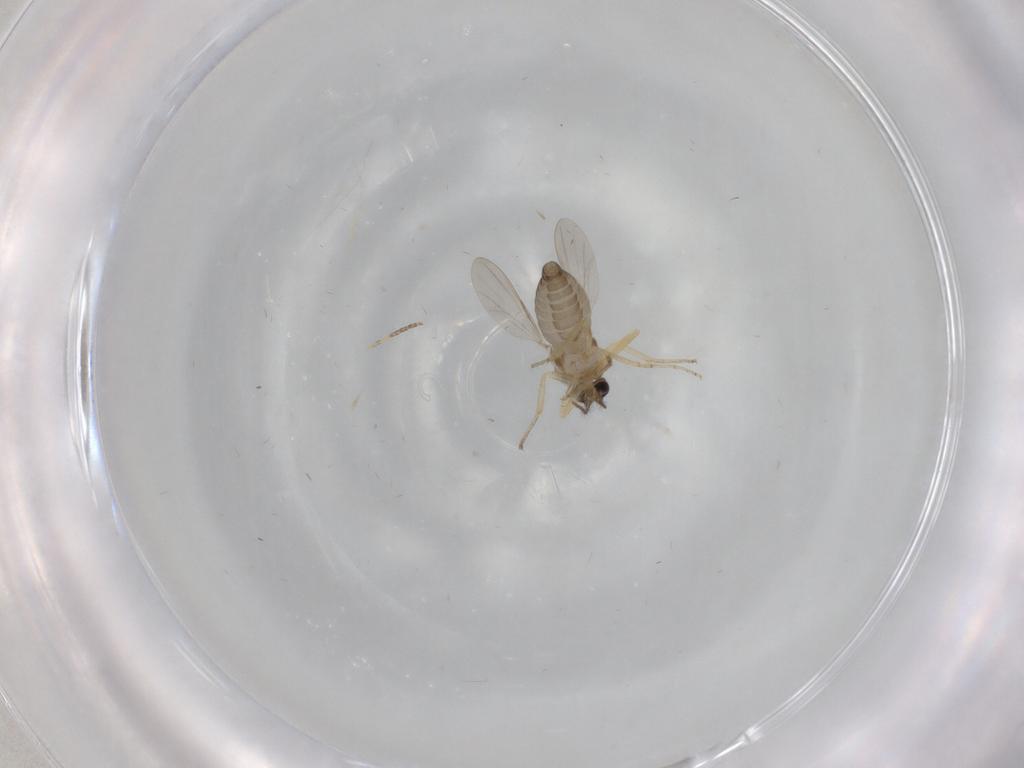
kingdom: Animalia
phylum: Arthropoda
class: Insecta
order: Diptera
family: Ceratopogonidae
